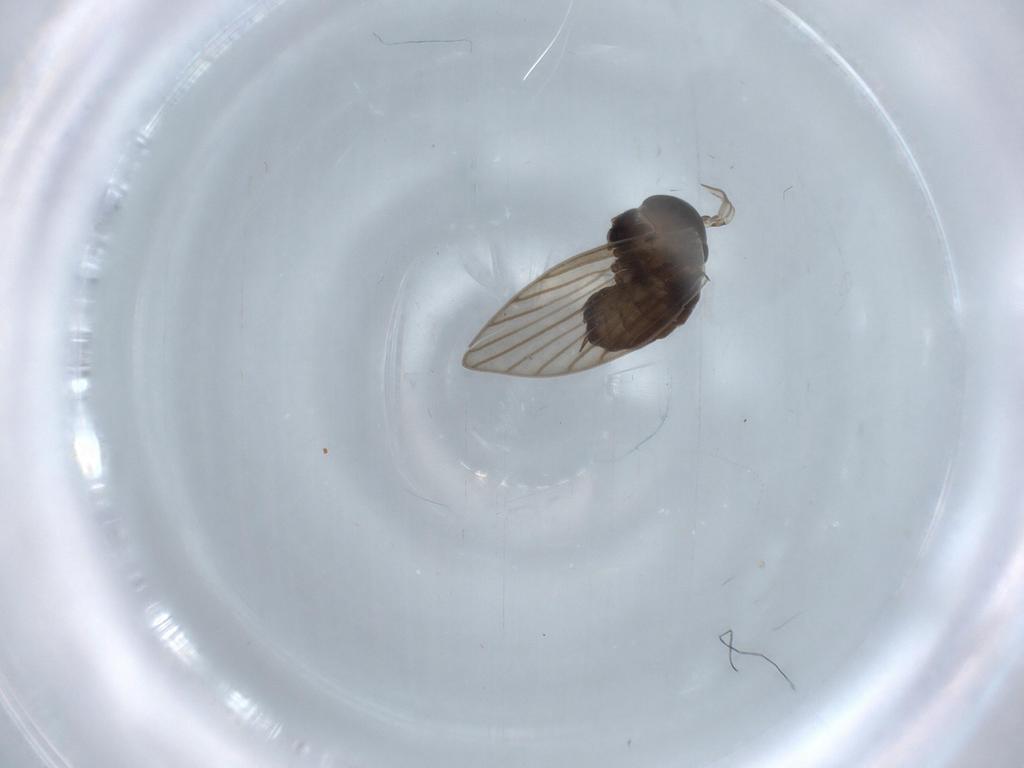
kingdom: Animalia
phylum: Arthropoda
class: Insecta
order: Diptera
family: Psychodidae
